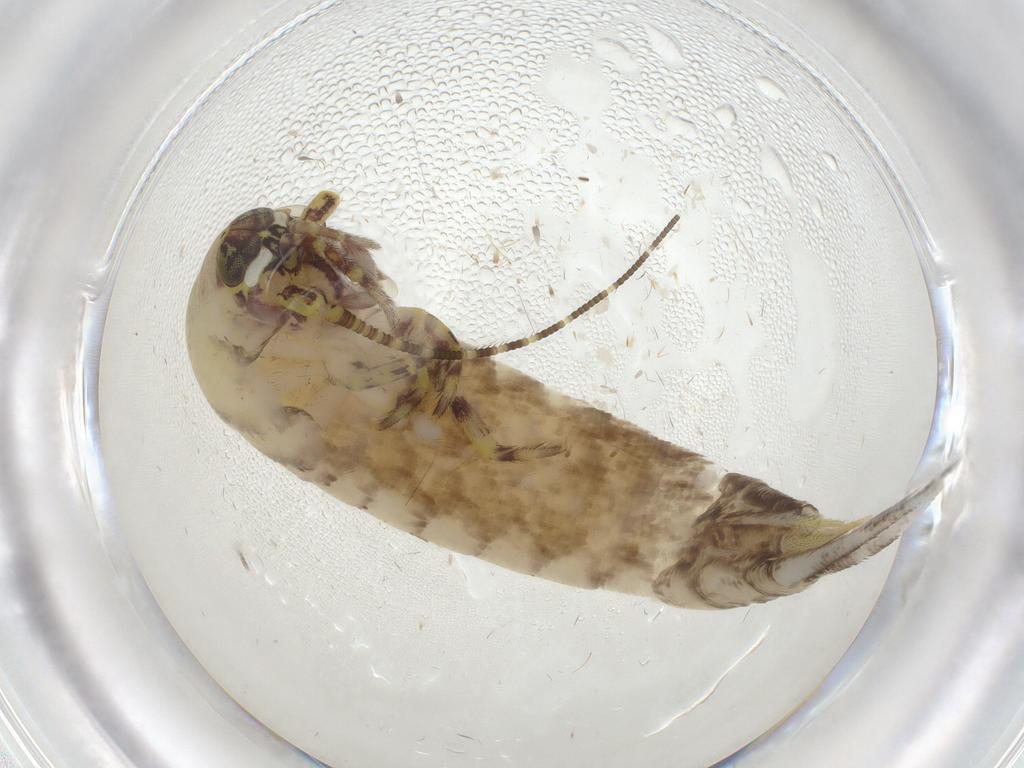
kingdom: Animalia
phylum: Arthropoda
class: Insecta
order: Archaeognatha
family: Machilidae
